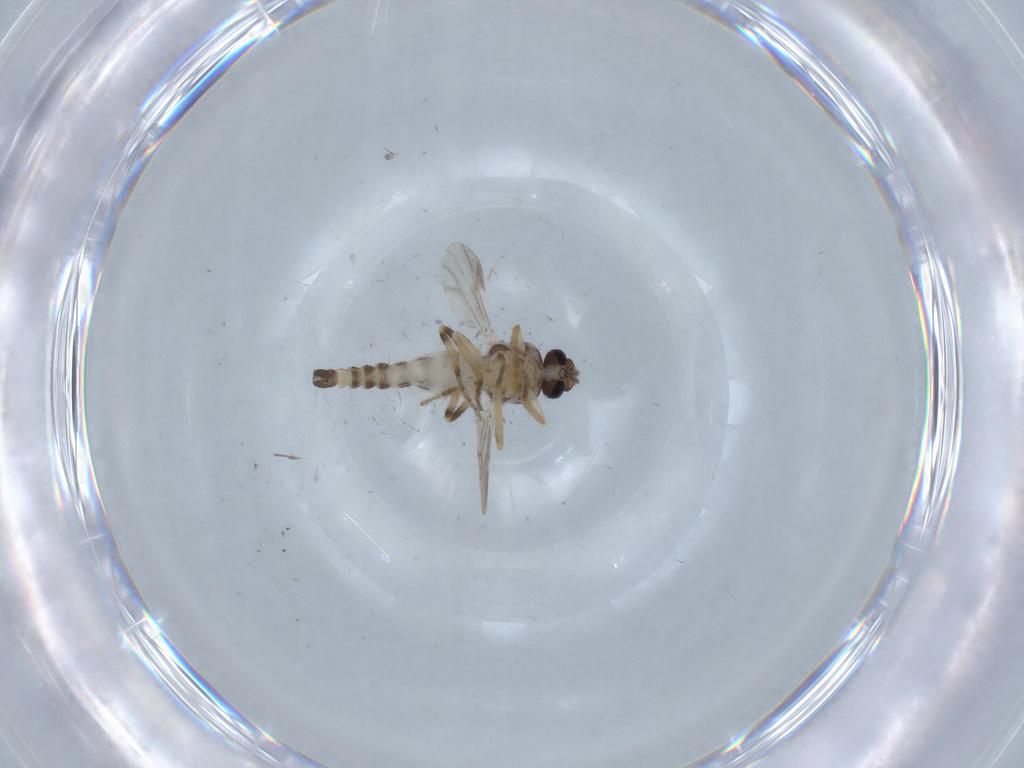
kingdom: Animalia
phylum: Arthropoda
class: Insecta
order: Diptera
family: Ceratopogonidae
